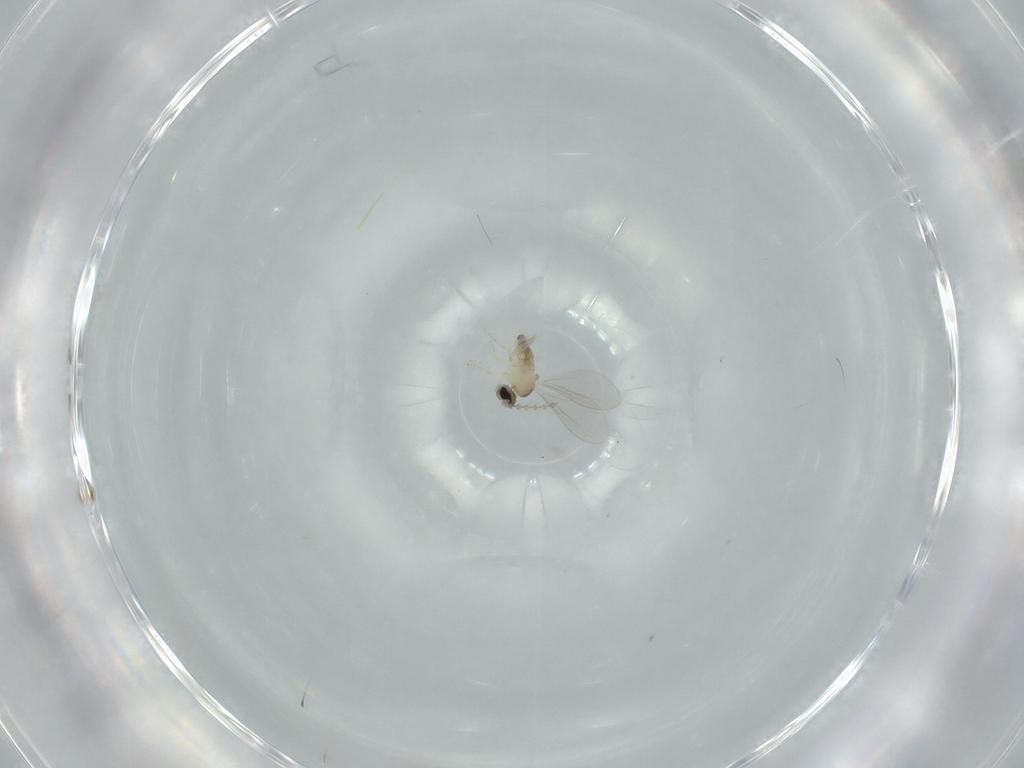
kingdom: Animalia
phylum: Arthropoda
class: Insecta
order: Diptera
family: Cecidomyiidae
